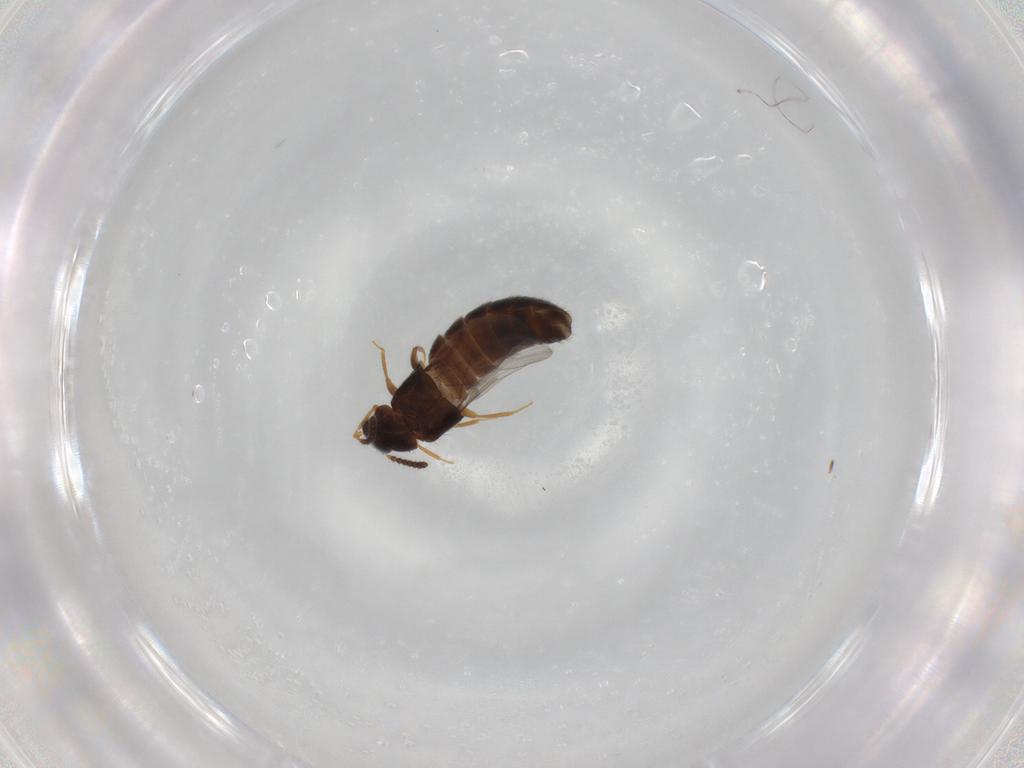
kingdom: Animalia
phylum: Arthropoda
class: Insecta
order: Coleoptera
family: Staphylinidae
